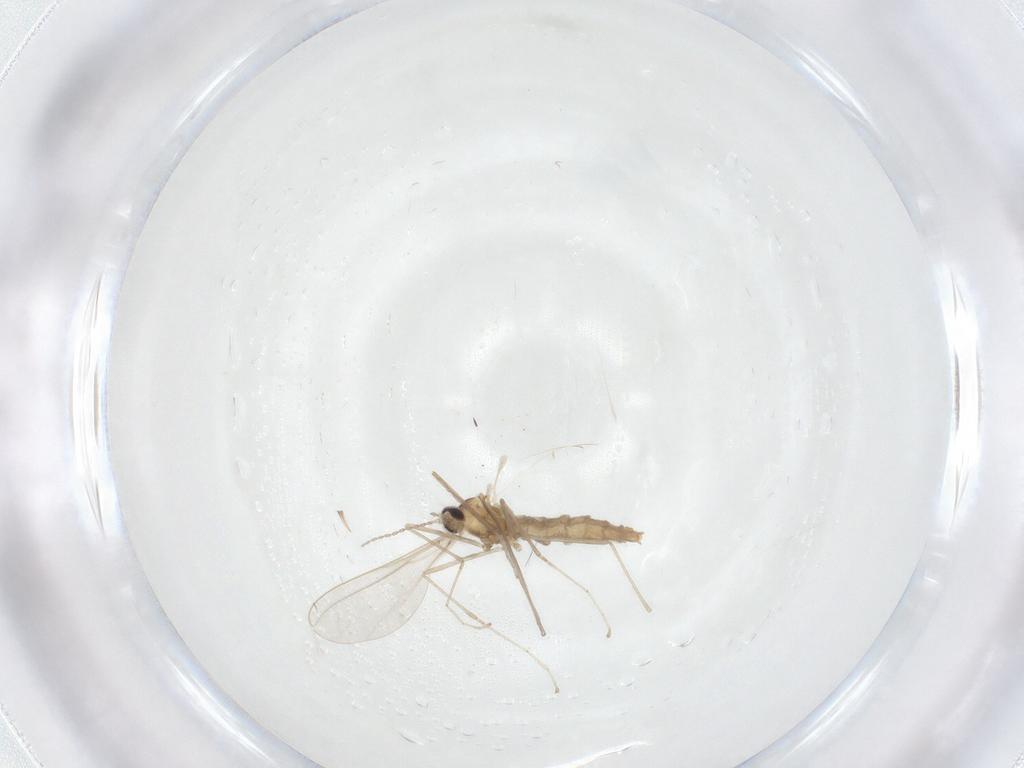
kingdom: Animalia
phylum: Arthropoda
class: Insecta
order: Diptera
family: Cecidomyiidae
